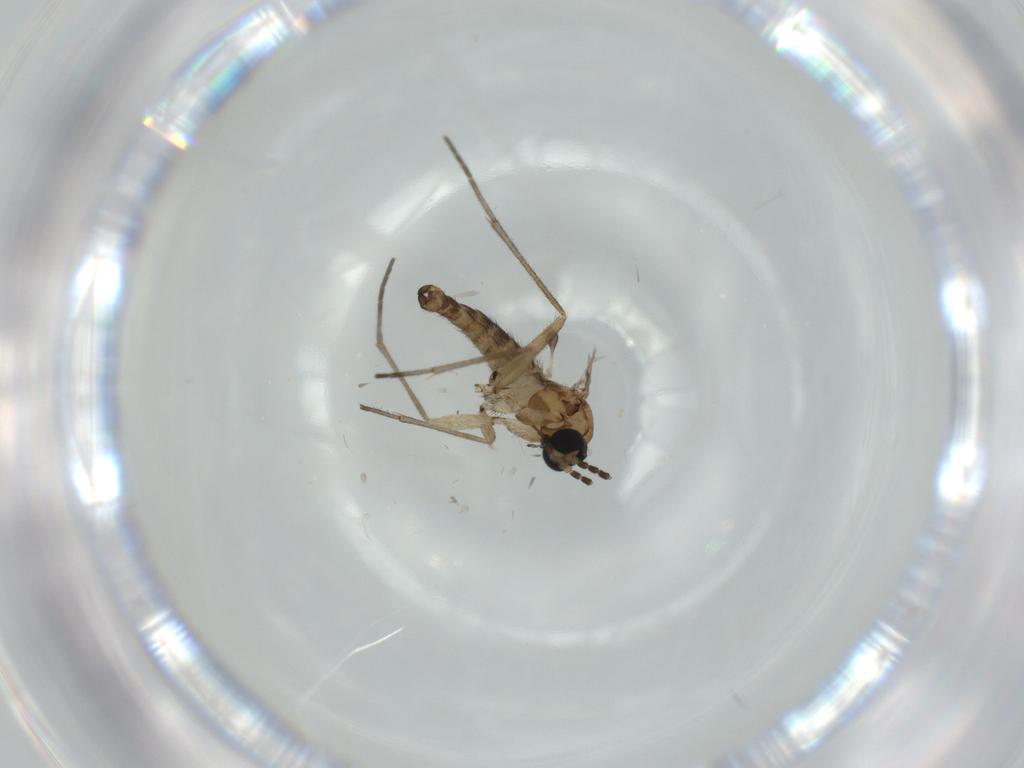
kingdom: Animalia
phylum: Arthropoda
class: Insecta
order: Diptera
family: Sciaridae
